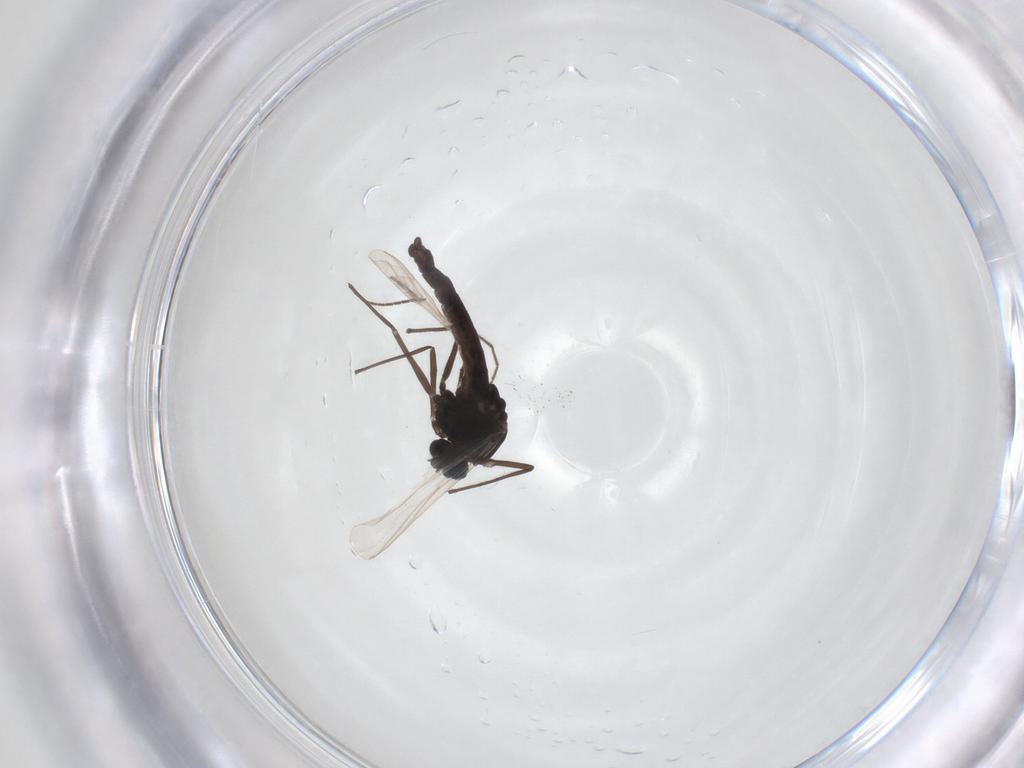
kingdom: Animalia
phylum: Arthropoda
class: Insecta
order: Diptera
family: Ceratopogonidae
